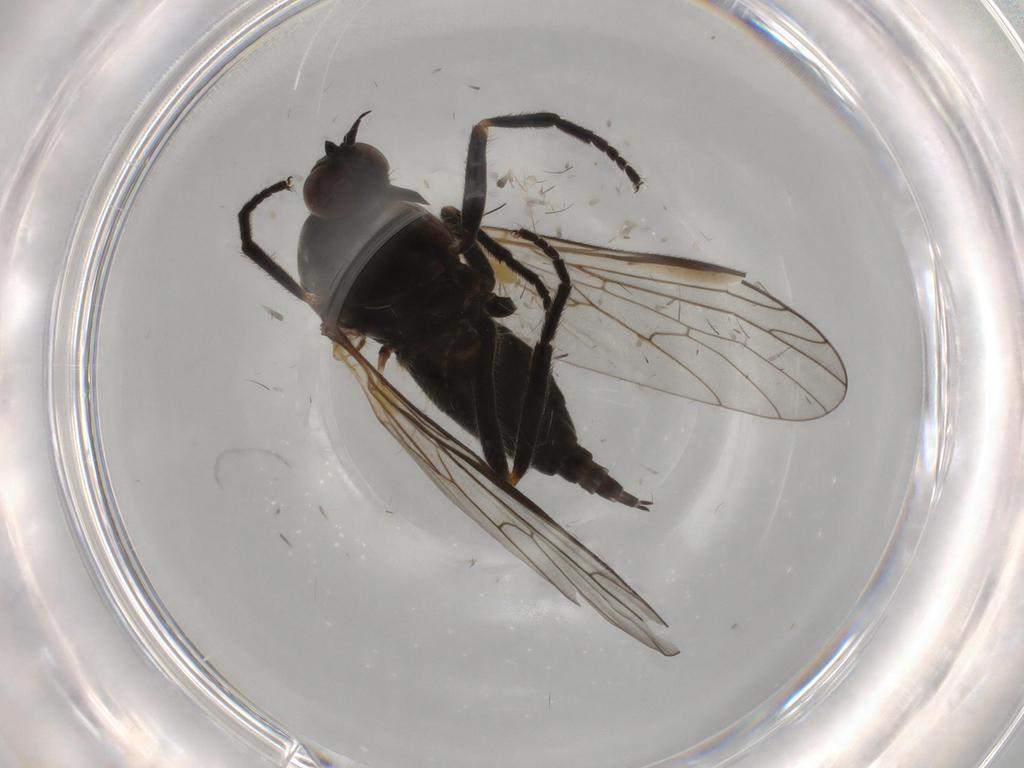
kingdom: Animalia
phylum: Arthropoda
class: Insecta
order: Diptera
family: Empididae
